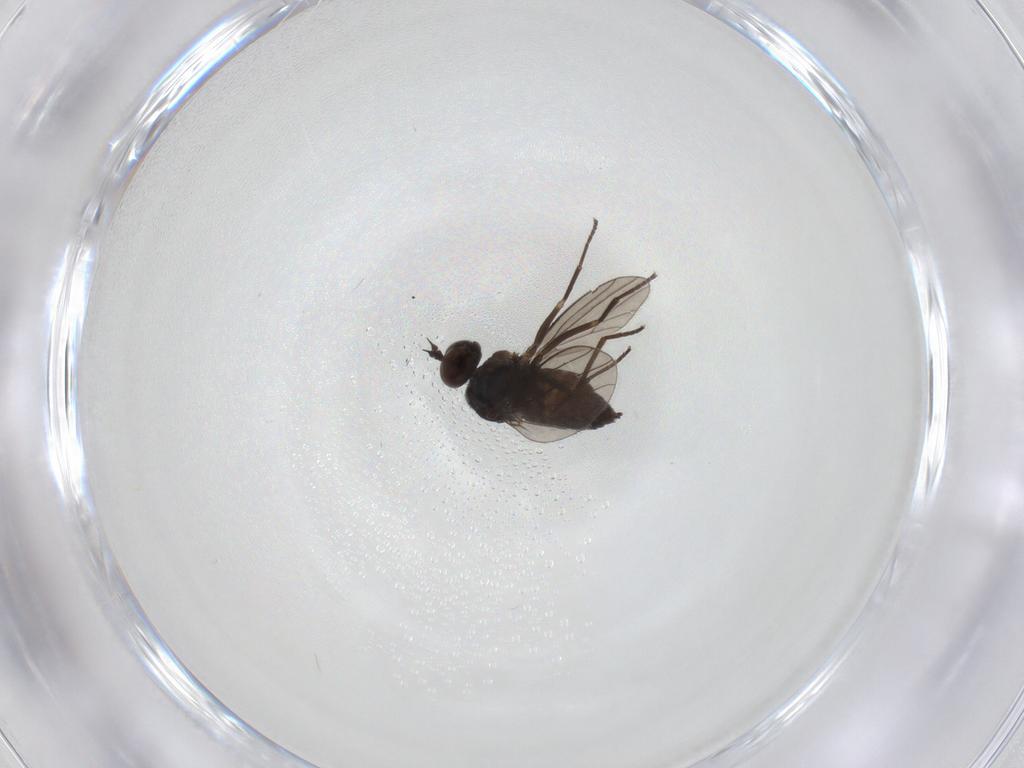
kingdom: Animalia
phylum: Arthropoda
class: Insecta
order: Diptera
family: Dolichopodidae
